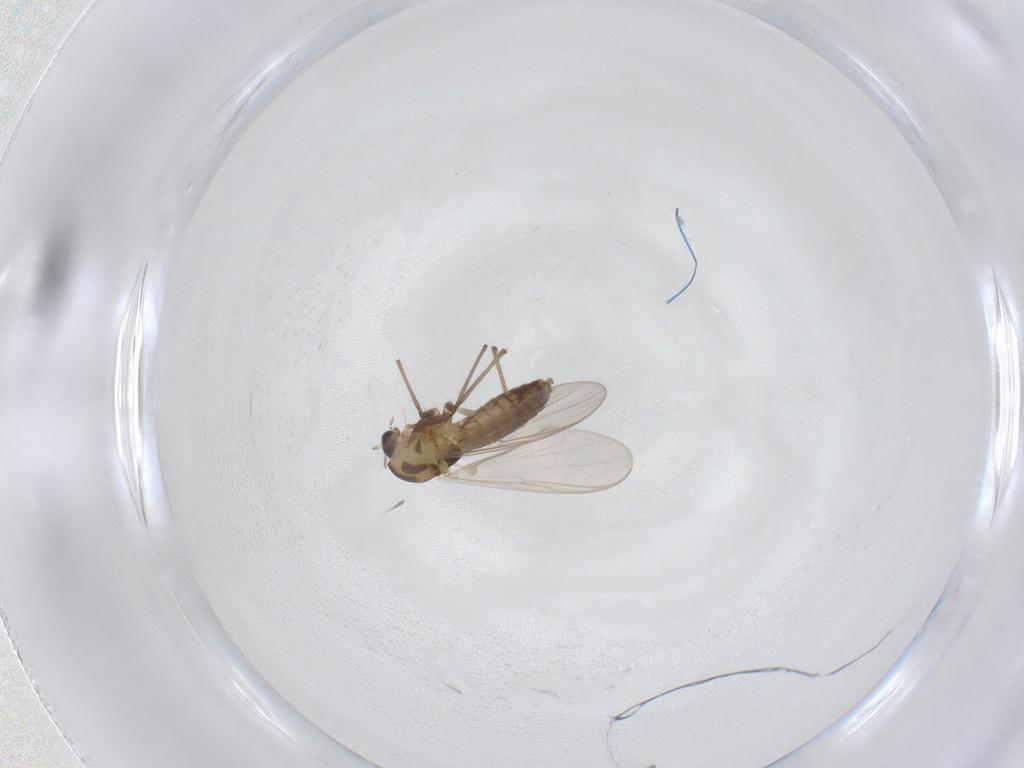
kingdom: Animalia
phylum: Arthropoda
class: Insecta
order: Diptera
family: Chironomidae
